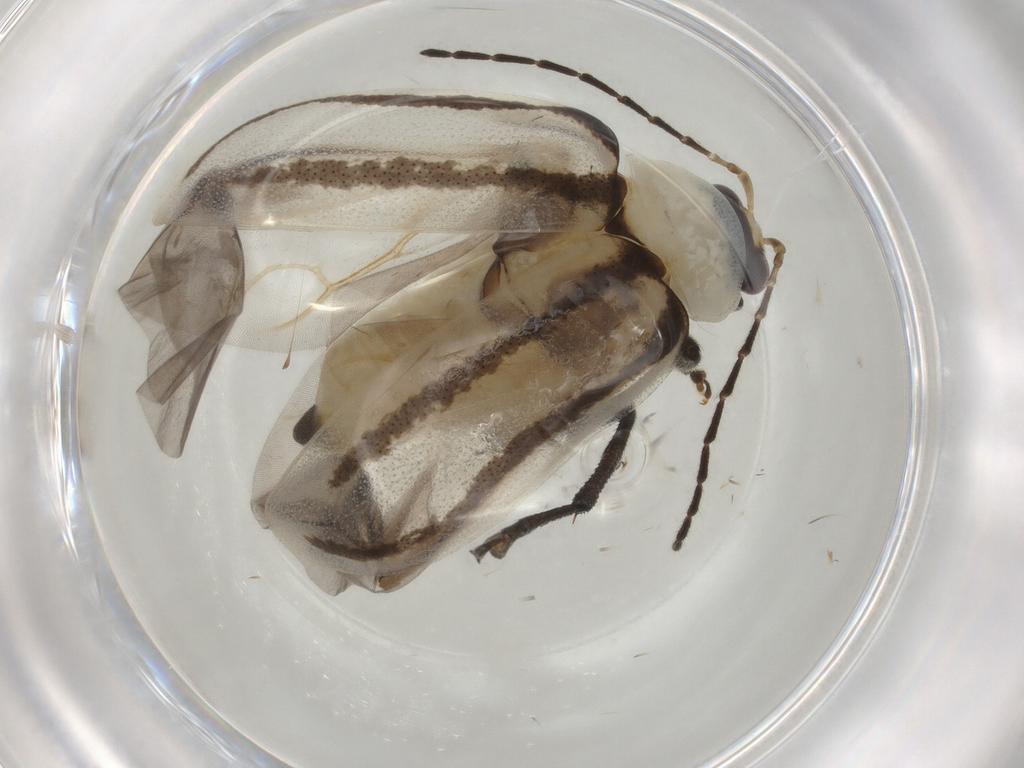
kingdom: Animalia
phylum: Arthropoda
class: Insecta
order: Coleoptera
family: Chrysomelidae
